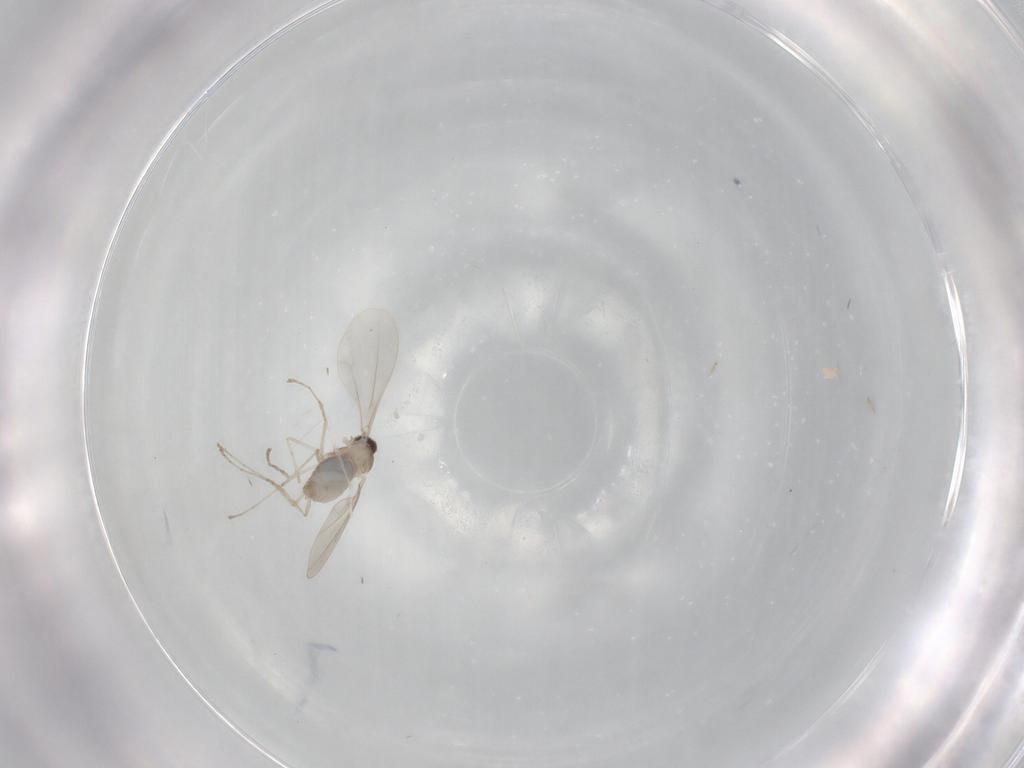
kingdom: Animalia
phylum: Arthropoda
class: Insecta
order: Diptera
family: Cecidomyiidae
